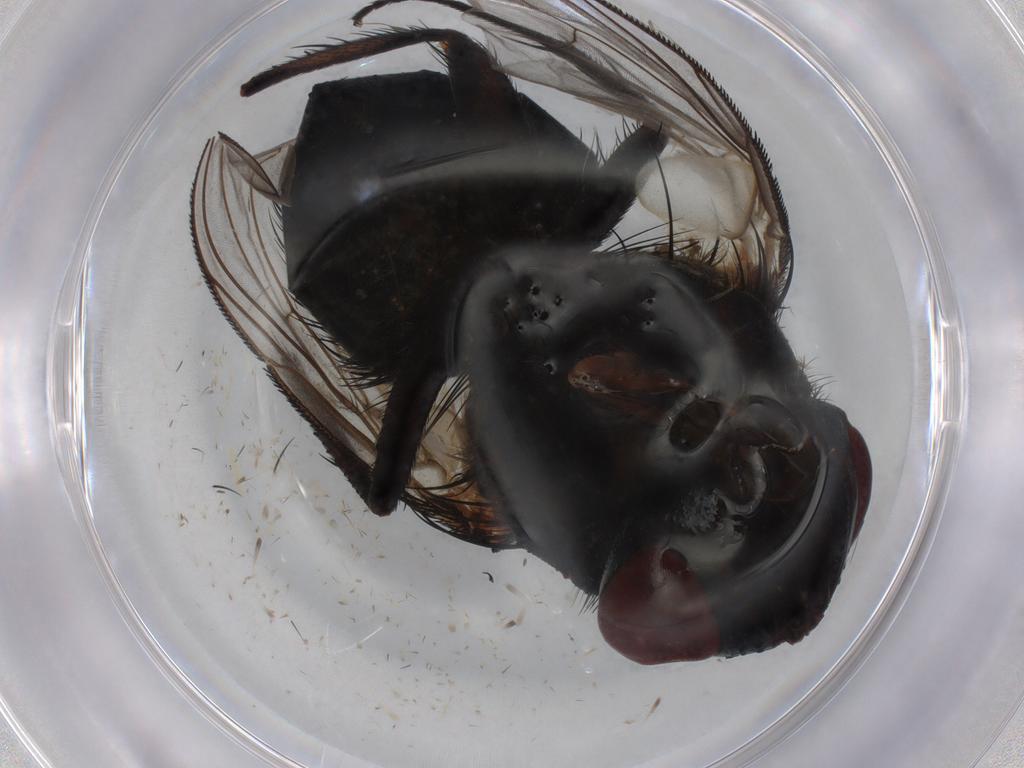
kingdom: Animalia
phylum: Arthropoda
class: Insecta
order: Diptera
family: Tachinidae
